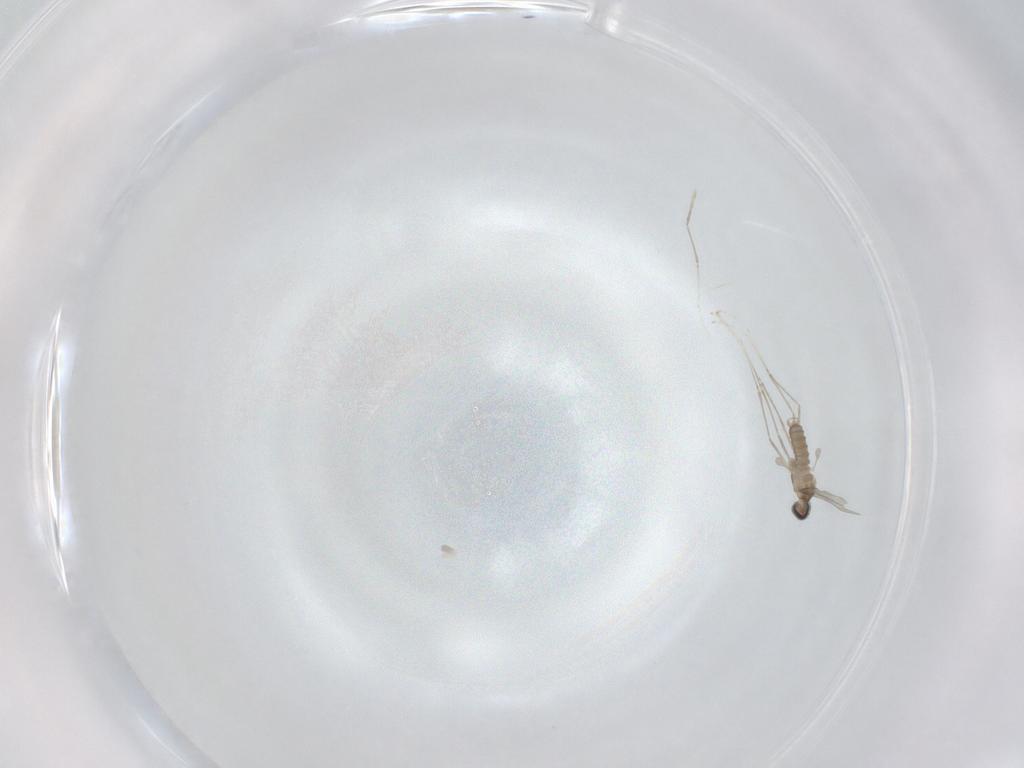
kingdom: Animalia
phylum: Arthropoda
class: Insecta
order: Diptera
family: Cecidomyiidae
